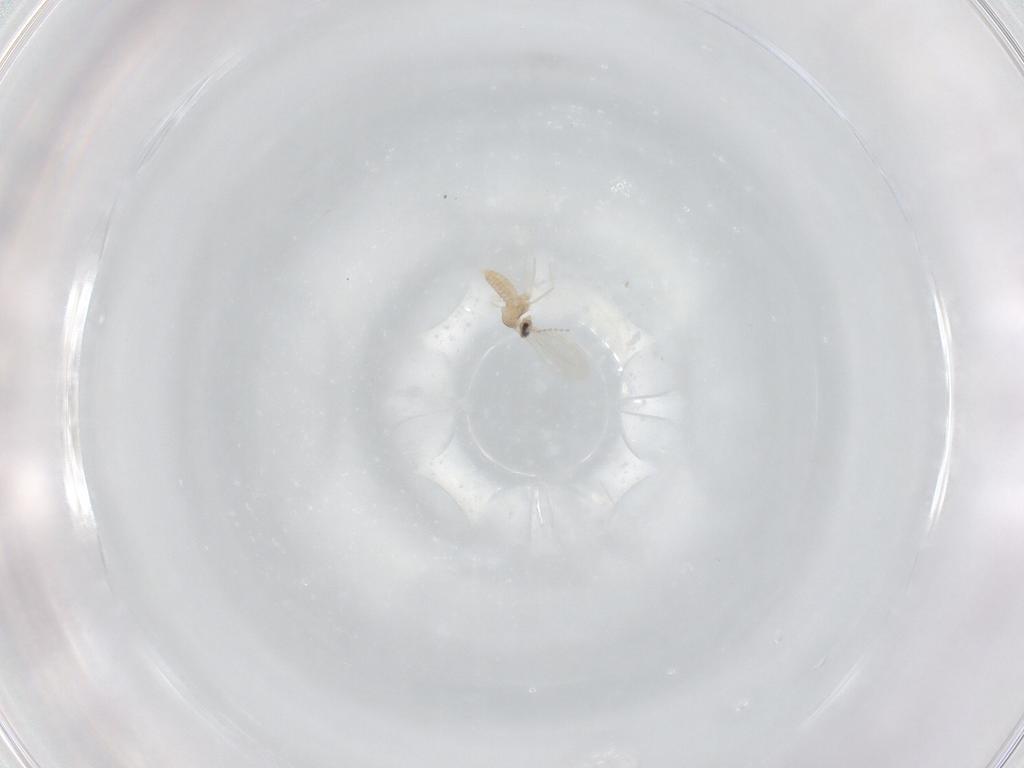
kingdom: Animalia
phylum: Arthropoda
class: Insecta
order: Diptera
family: Cecidomyiidae
